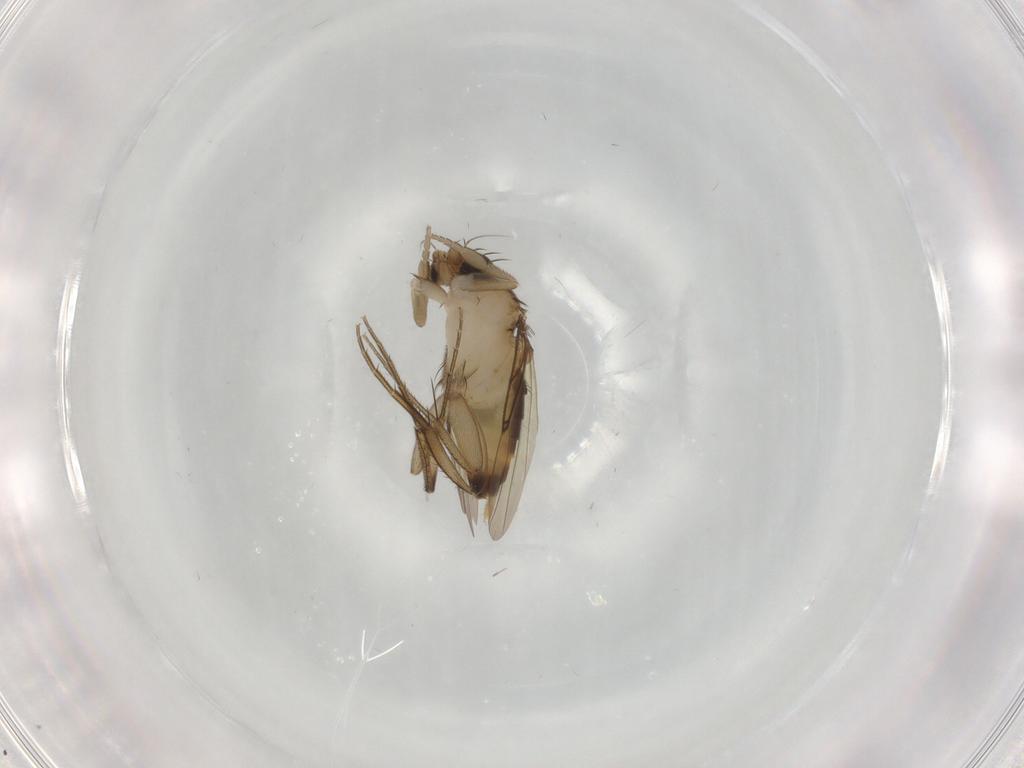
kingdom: Animalia
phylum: Arthropoda
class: Insecta
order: Diptera
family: Phoridae
